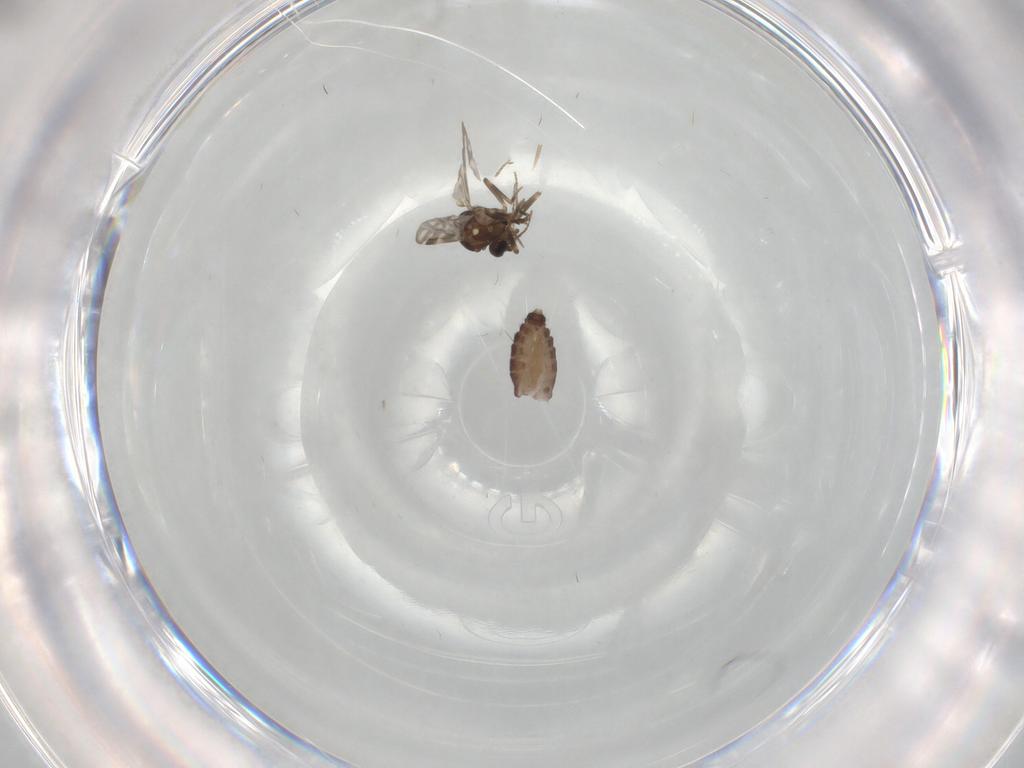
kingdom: Animalia
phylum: Arthropoda
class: Insecta
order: Diptera
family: Ceratopogonidae
